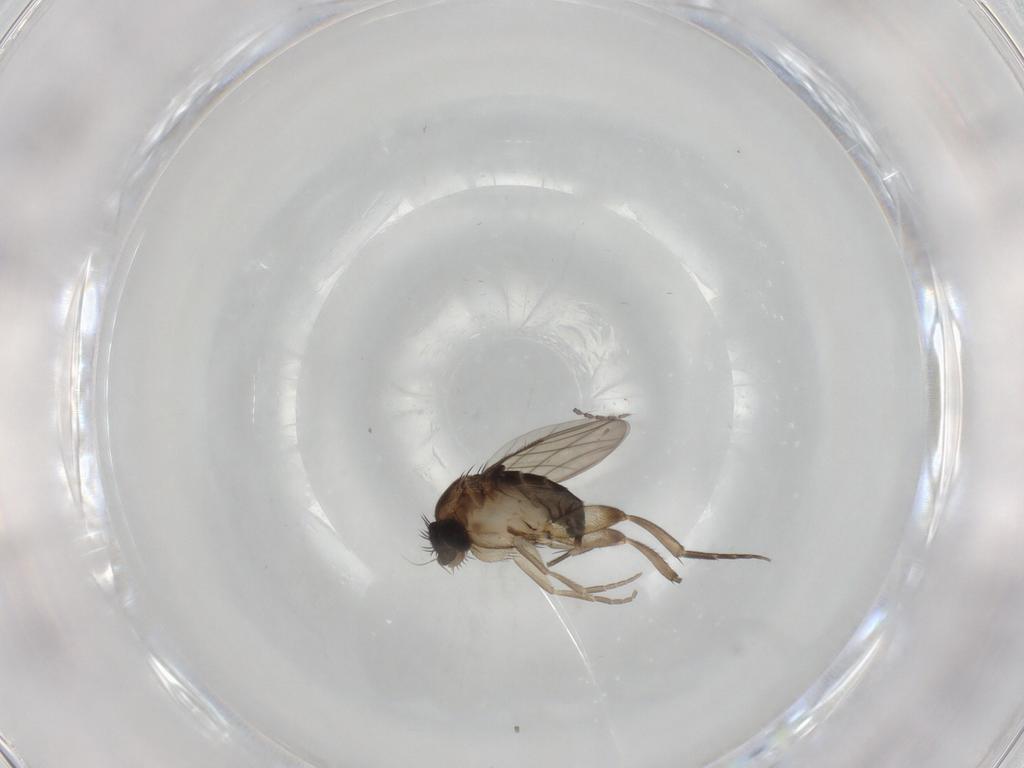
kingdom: Animalia
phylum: Arthropoda
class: Insecta
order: Diptera
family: Phoridae
